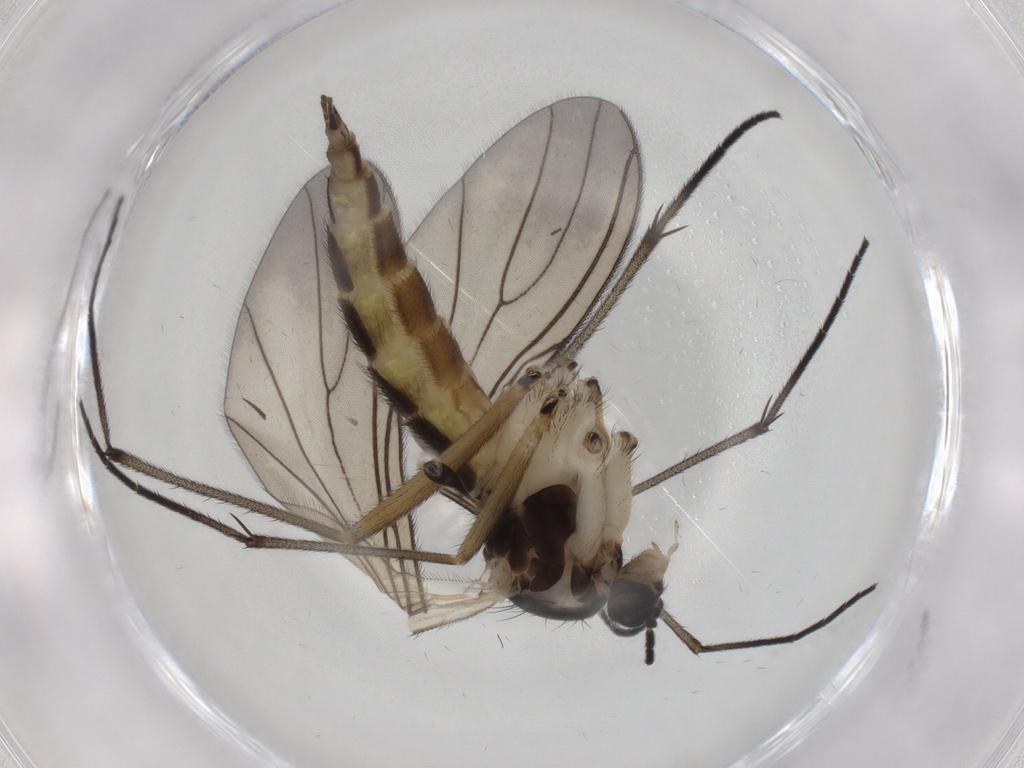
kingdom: Animalia
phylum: Arthropoda
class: Insecta
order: Diptera
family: Sciaridae
